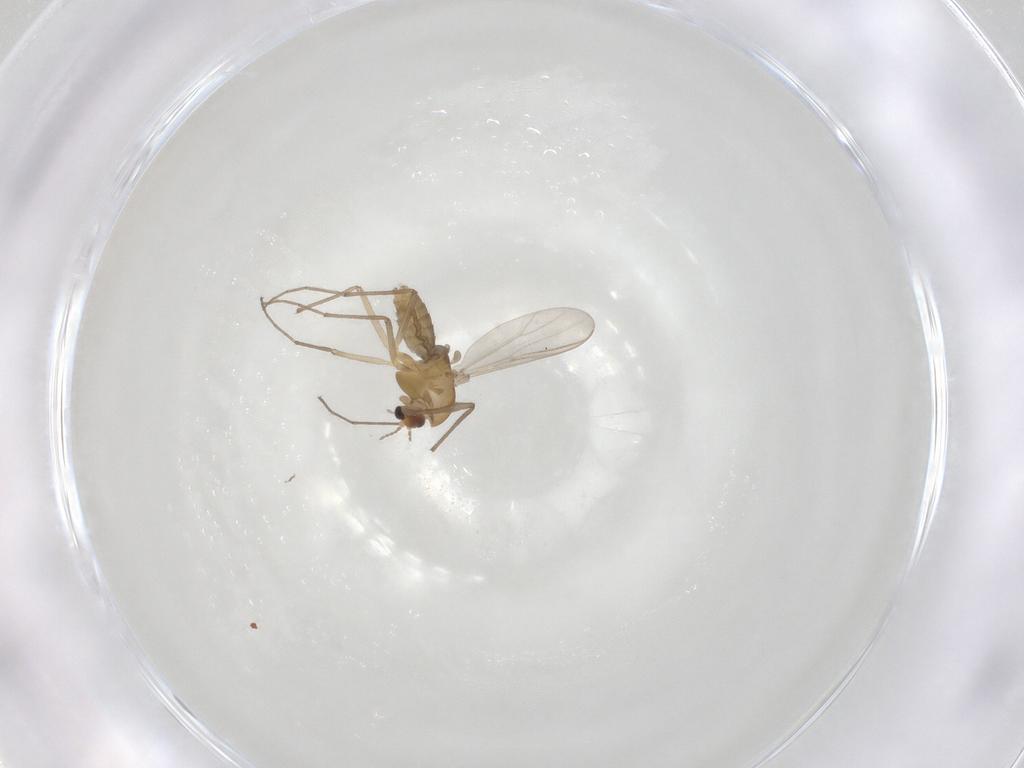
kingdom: Animalia
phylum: Arthropoda
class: Insecta
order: Diptera
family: Chironomidae
